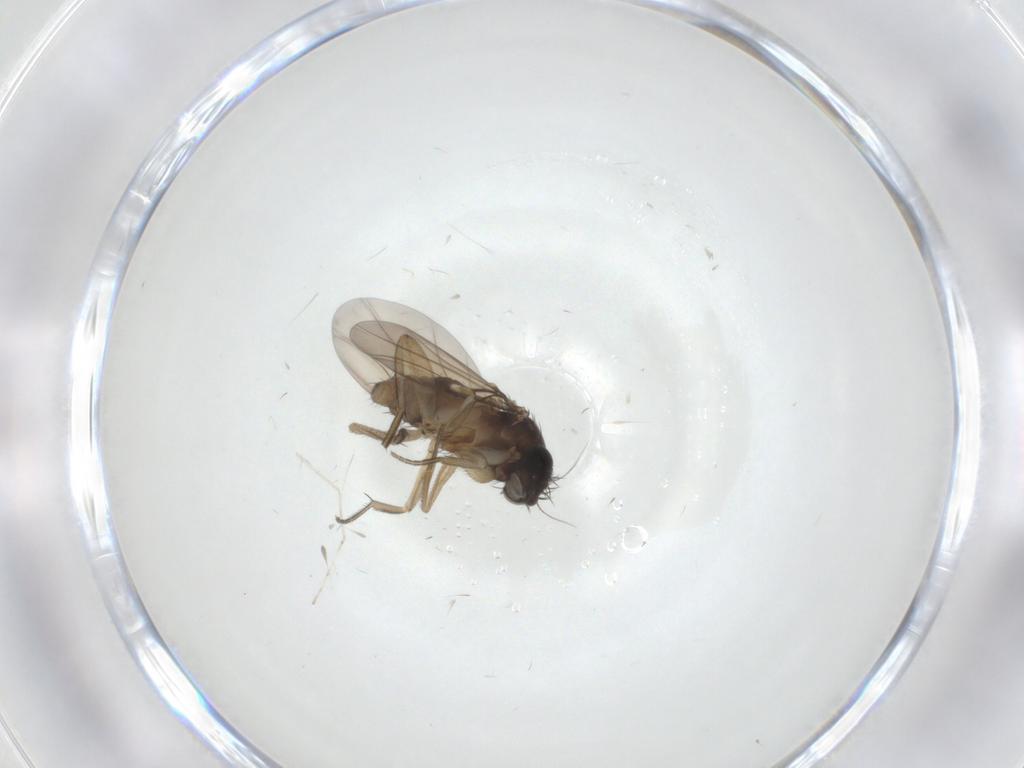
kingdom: Animalia
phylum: Arthropoda
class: Insecta
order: Diptera
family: Phoridae
